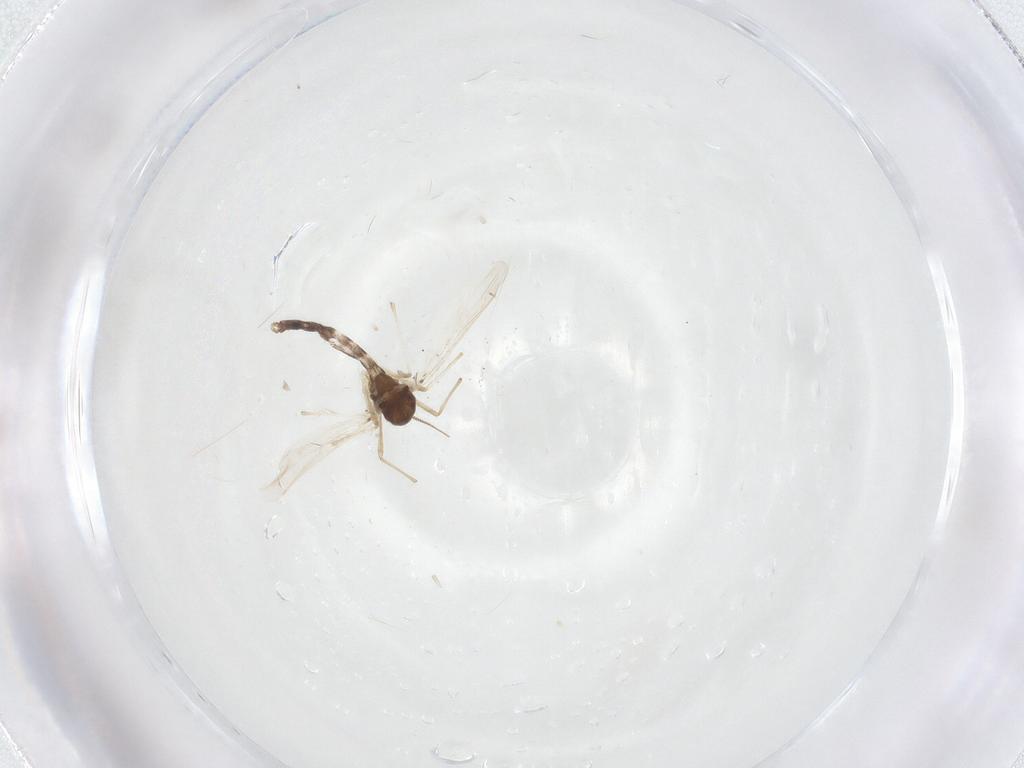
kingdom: Animalia
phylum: Arthropoda
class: Insecta
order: Diptera
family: Chironomidae
